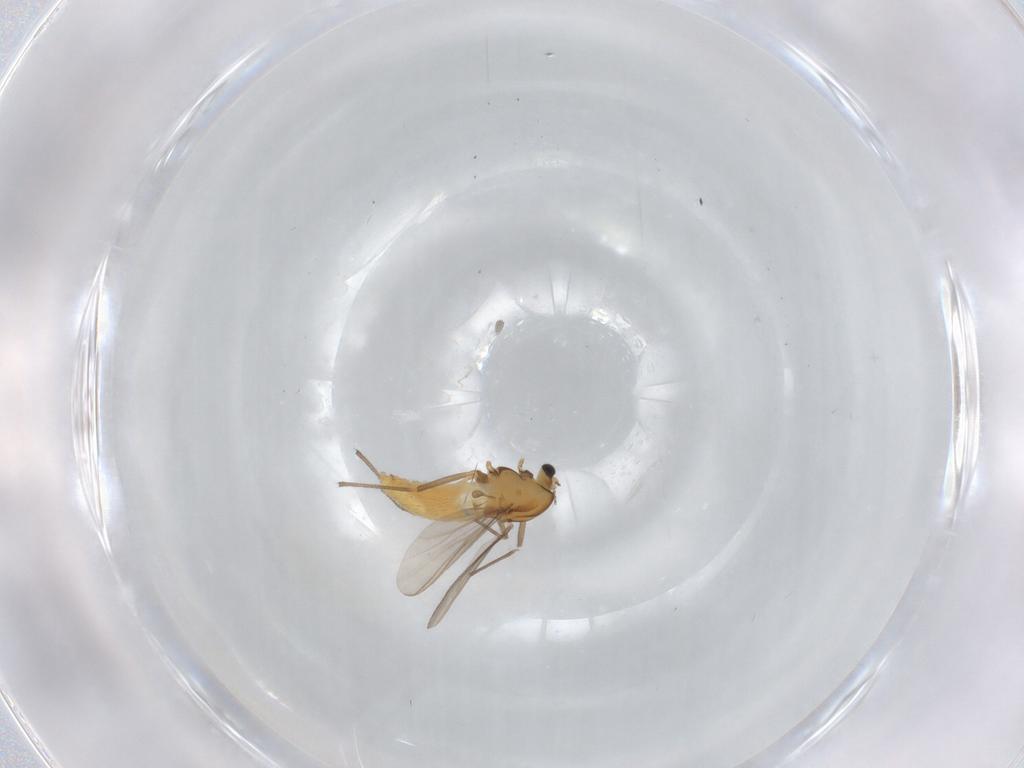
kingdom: Animalia
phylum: Arthropoda
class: Insecta
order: Diptera
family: Chironomidae
